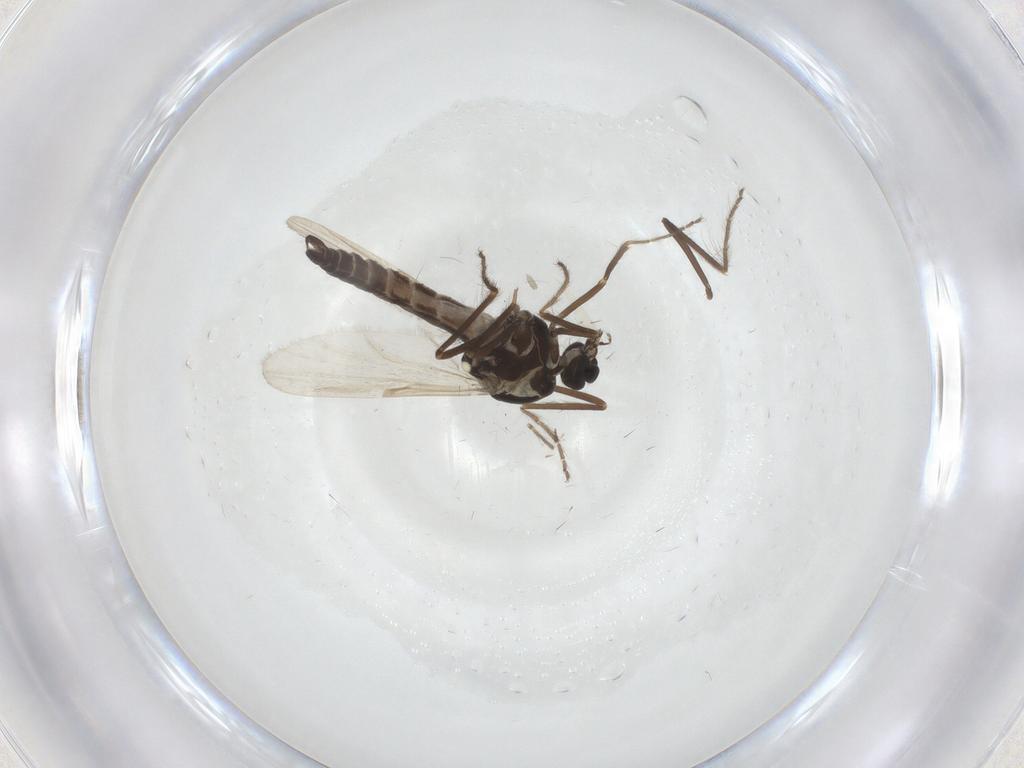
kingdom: Animalia
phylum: Arthropoda
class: Insecta
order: Diptera
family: Ceratopogonidae
